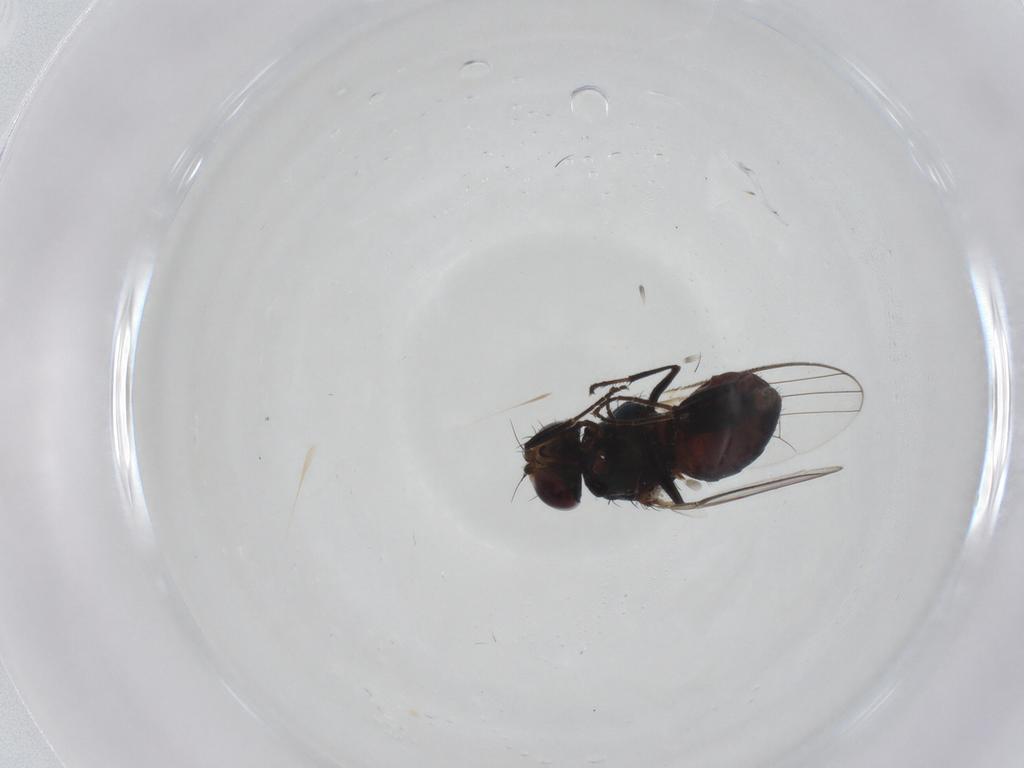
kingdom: Animalia
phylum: Arthropoda
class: Insecta
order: Diptera
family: Carnidae
